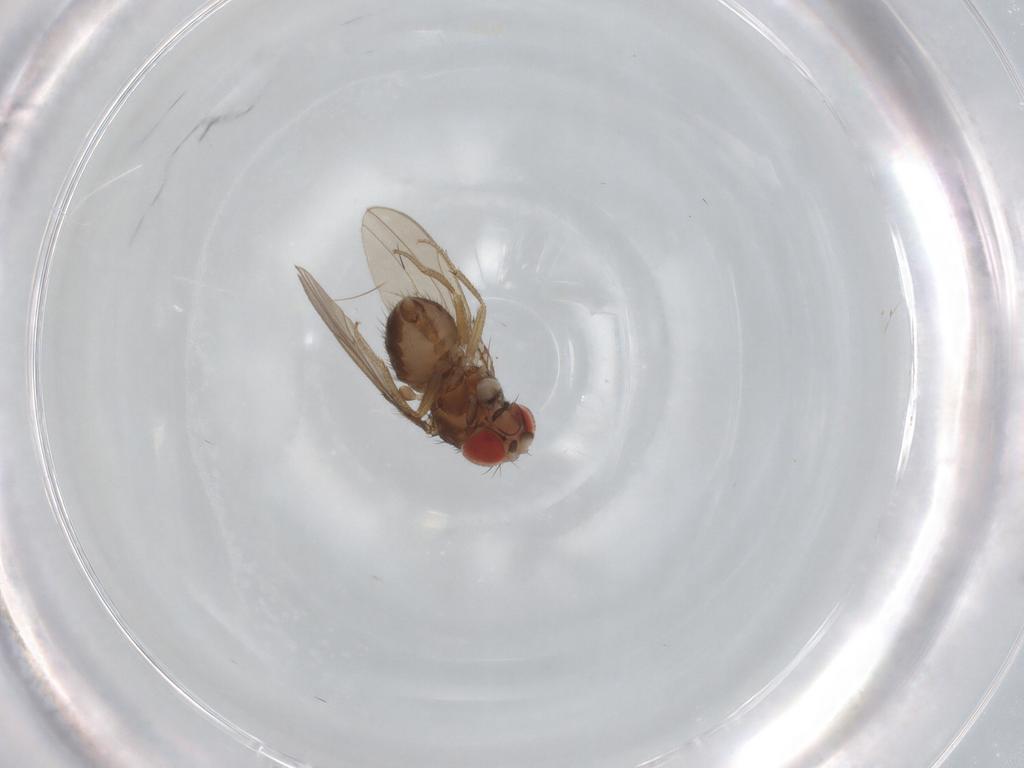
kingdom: Animalia
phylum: Arthropoda
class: Insecta
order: Diptera
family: Drosophilidae
